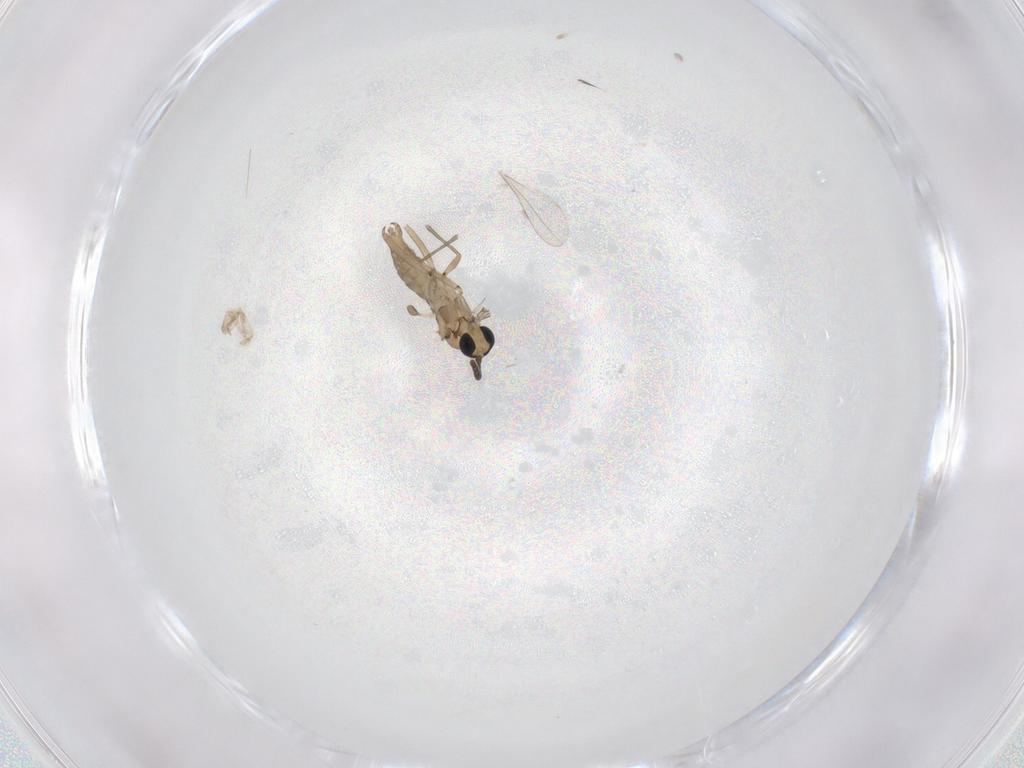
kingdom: Animalia
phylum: Arthropoda
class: Insecta
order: Diptera
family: Sciaridae
